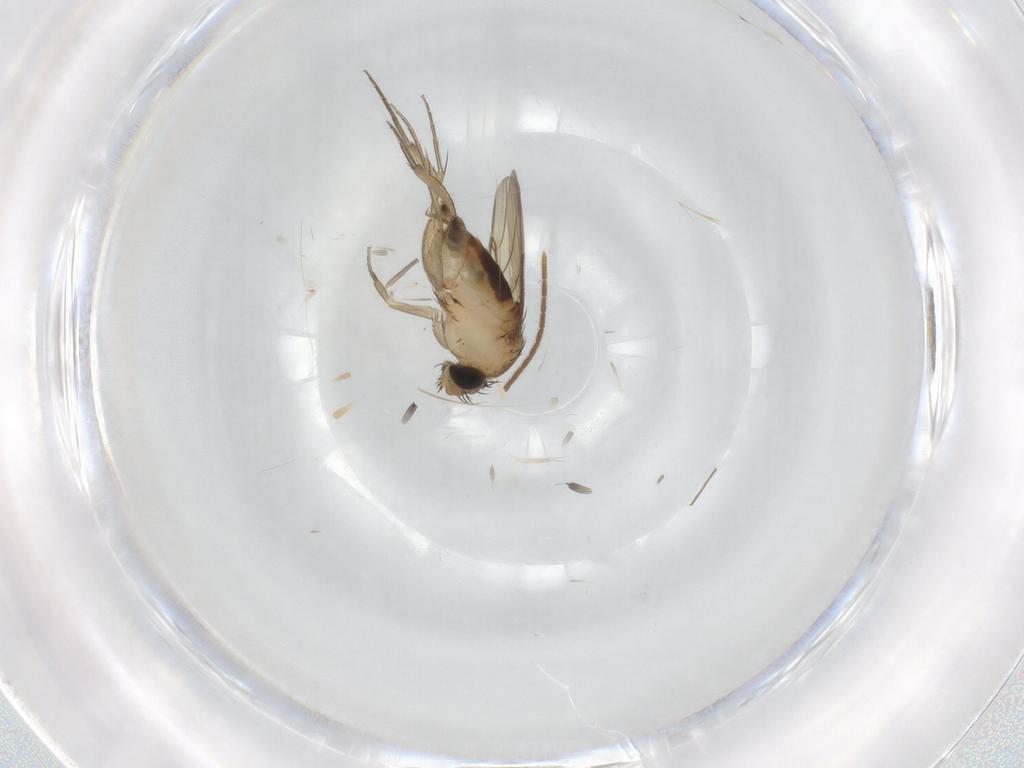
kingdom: Animalia
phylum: Arthropoda
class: Insecta
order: Diptera
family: Phoridae
